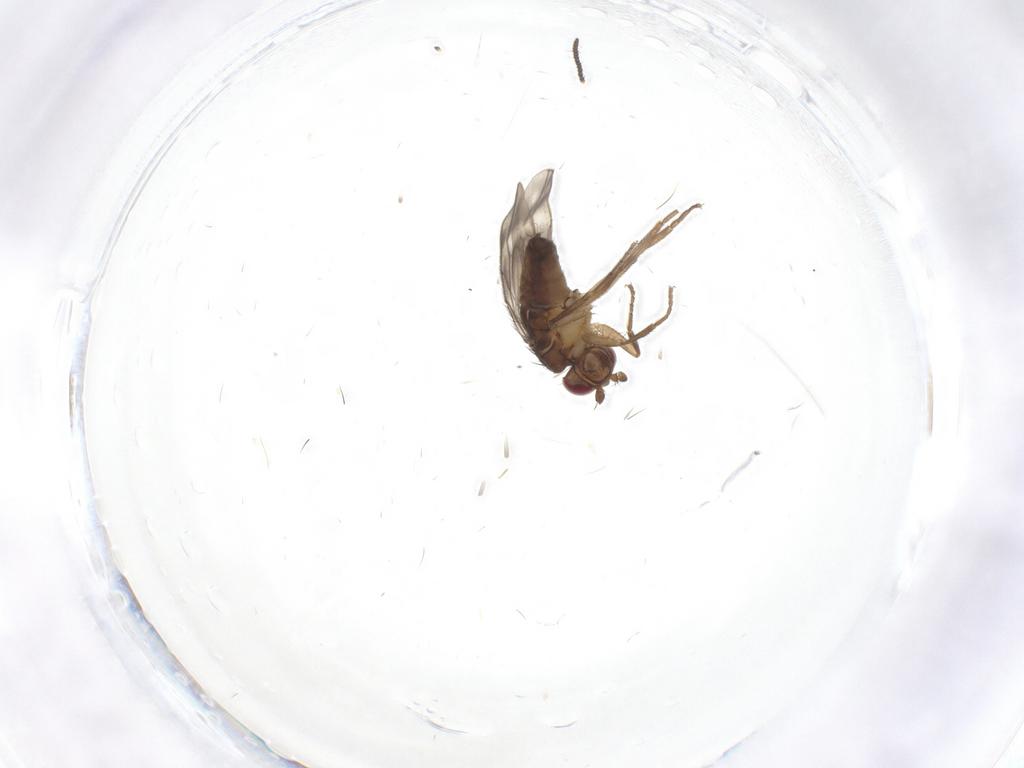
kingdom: Animalia
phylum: Arthropoda
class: Insecta
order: Diptera
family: Sphaeroceridae
